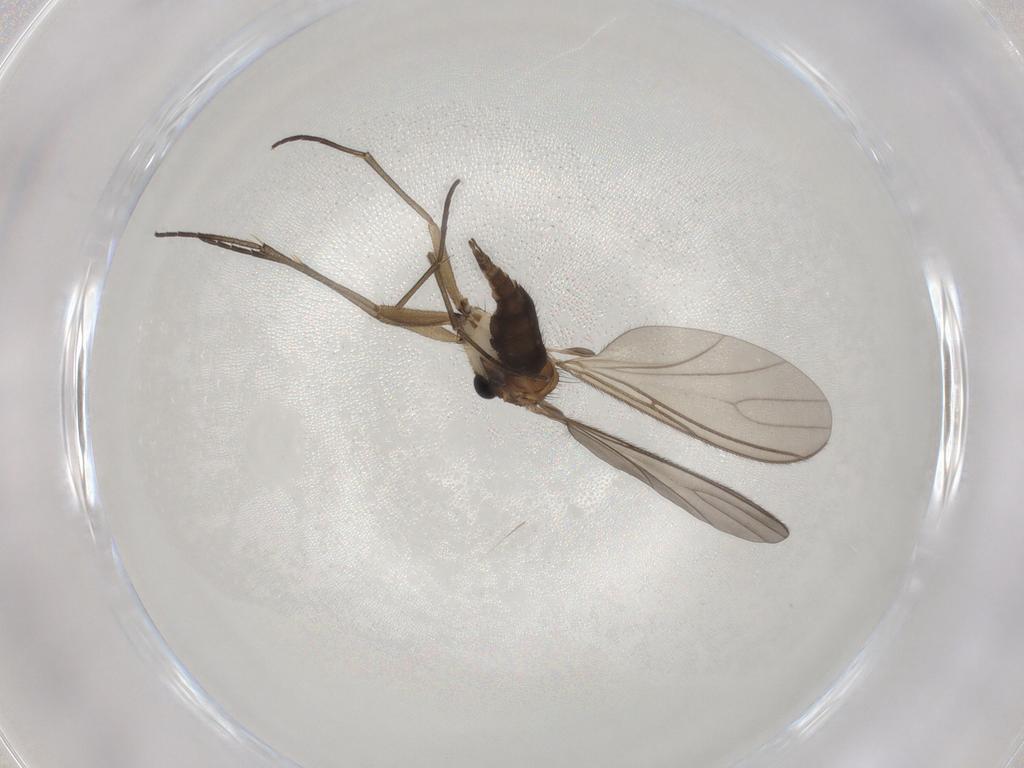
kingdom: Animalia
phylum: Arthropoda
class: Insecta
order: Diptera
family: Sciaridae
